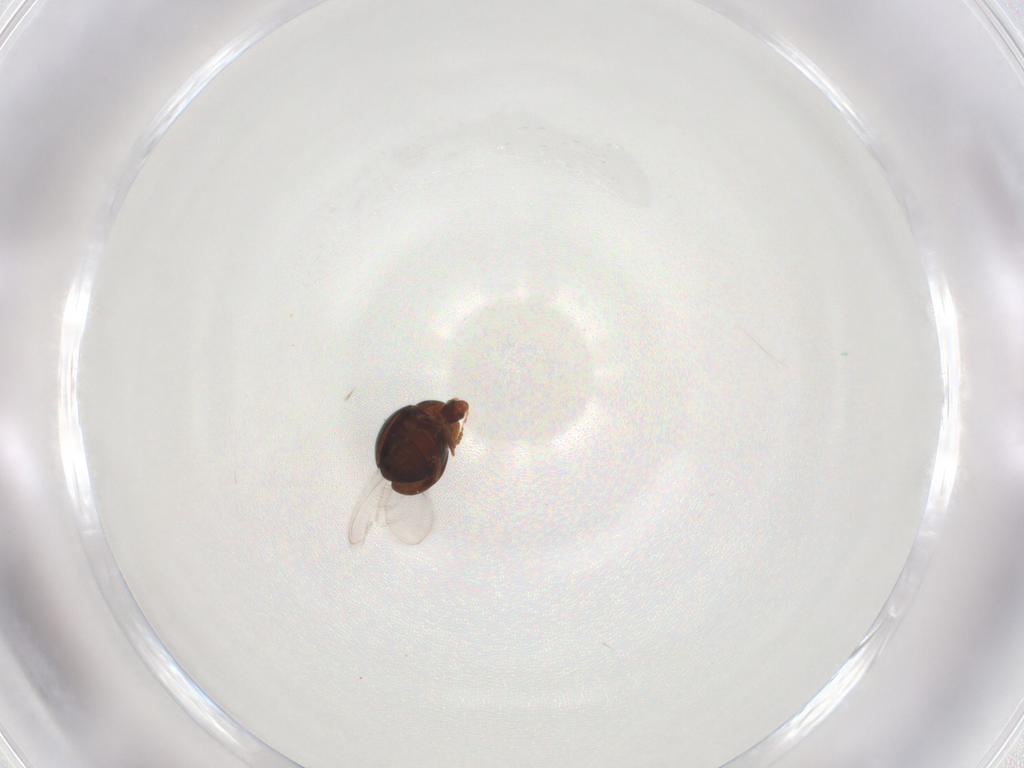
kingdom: Animalia
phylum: Arthropoda
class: Insecta
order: Coleoptera
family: Corylophidae
